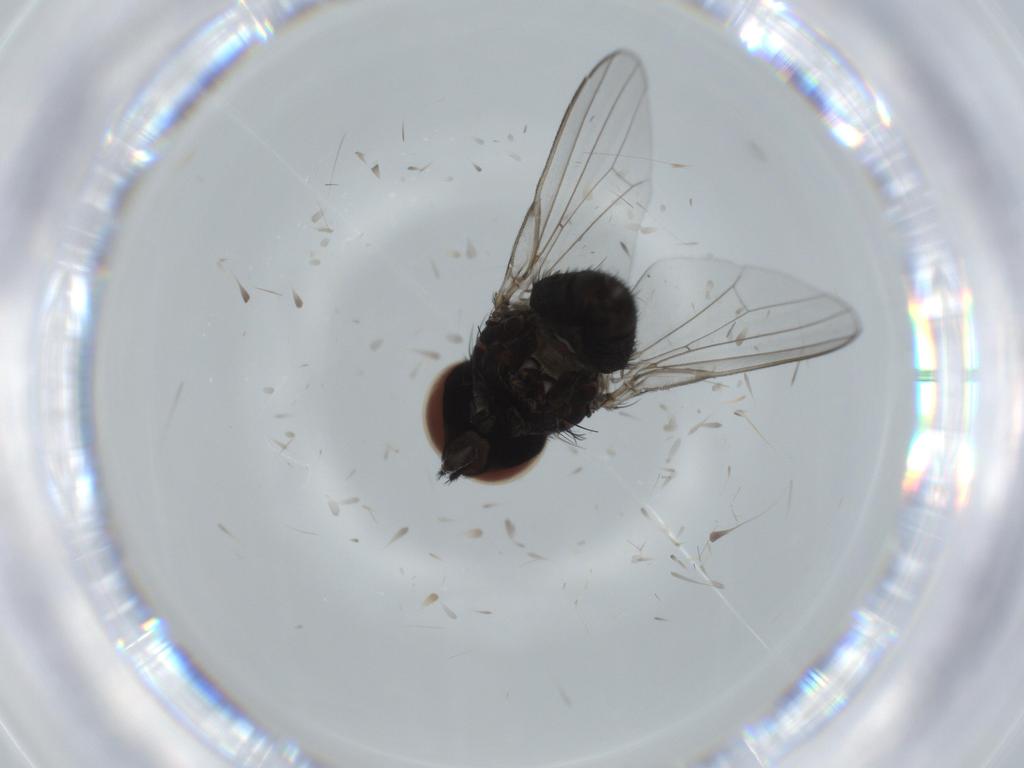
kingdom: Animalia
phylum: Arthropoda
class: Insecta
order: Diptera
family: Milichiidae
